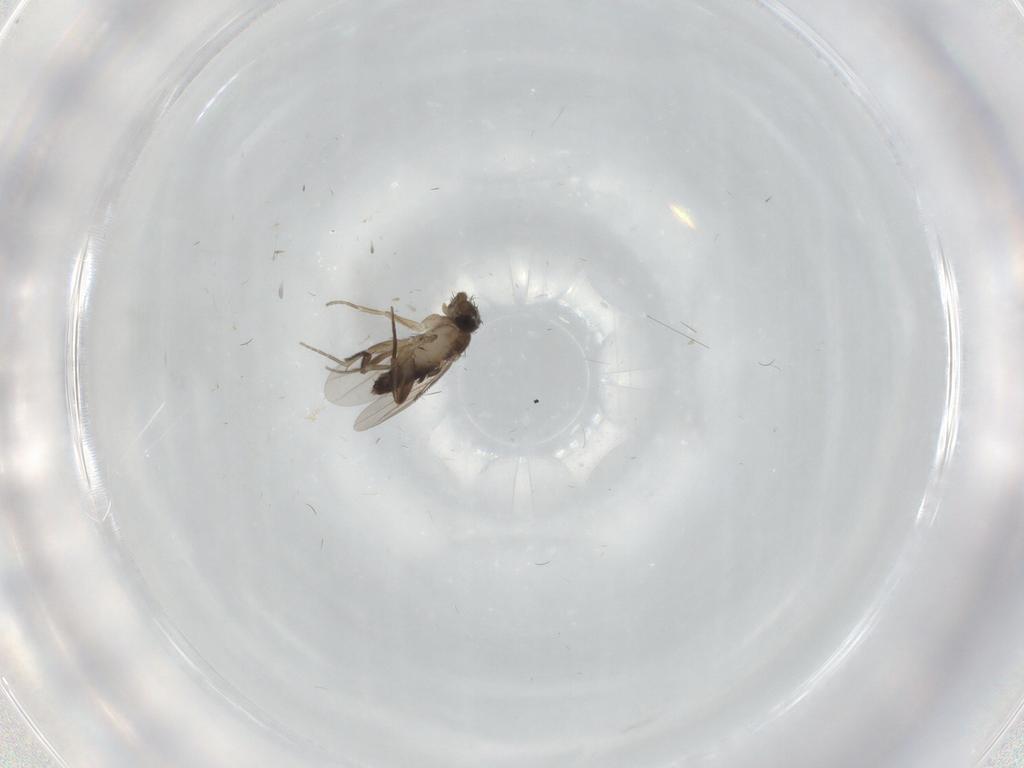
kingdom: Animalia
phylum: Arthropoda
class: Insecta
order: Diptera
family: Phoridae
